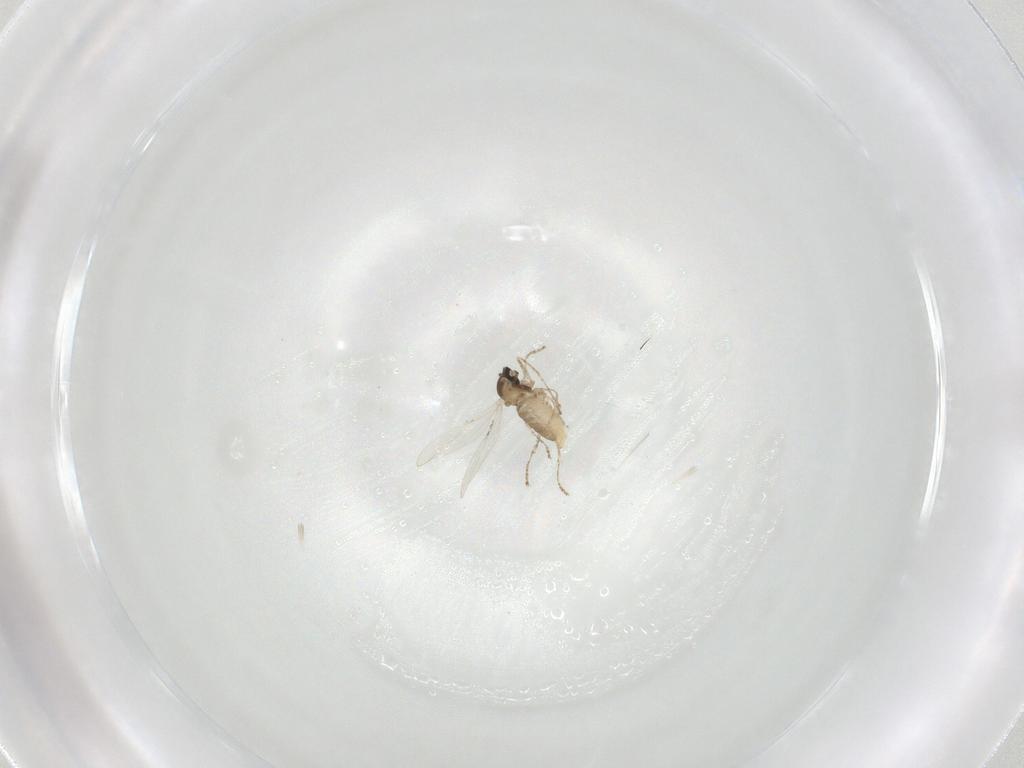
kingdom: Animalia
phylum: Arthropoda
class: Insecta
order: Diptera
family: Cecidomyiidae
